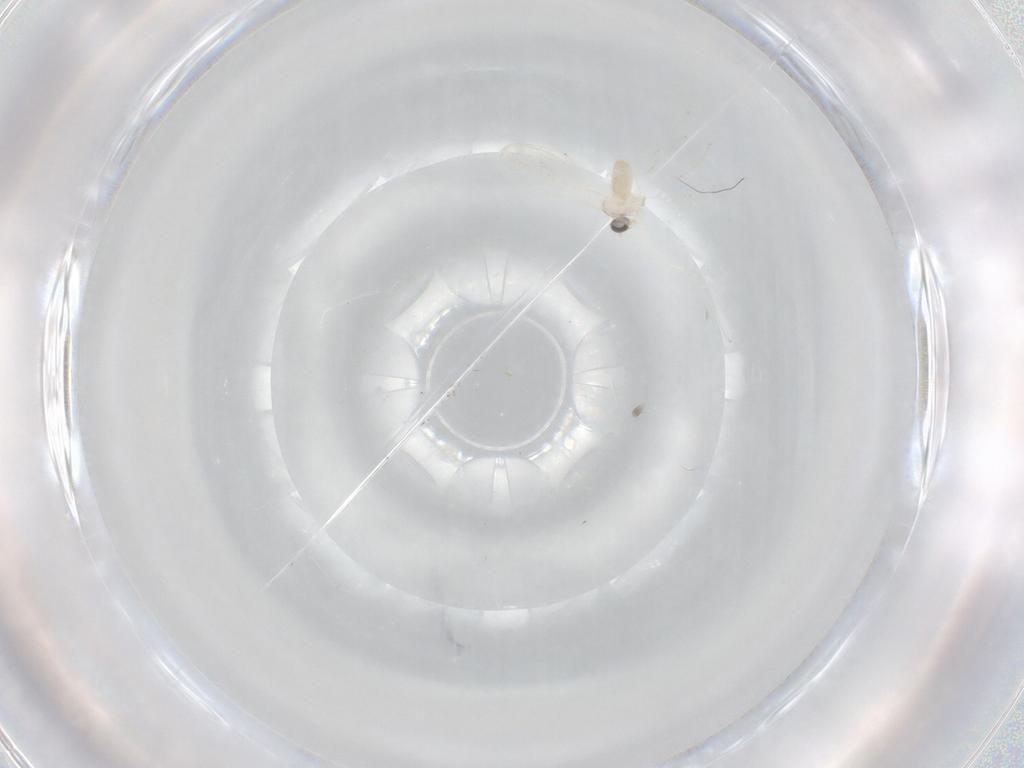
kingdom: Animalia
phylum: Arthropoda
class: Insecta
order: Diptera
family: Cecidomyiidae
